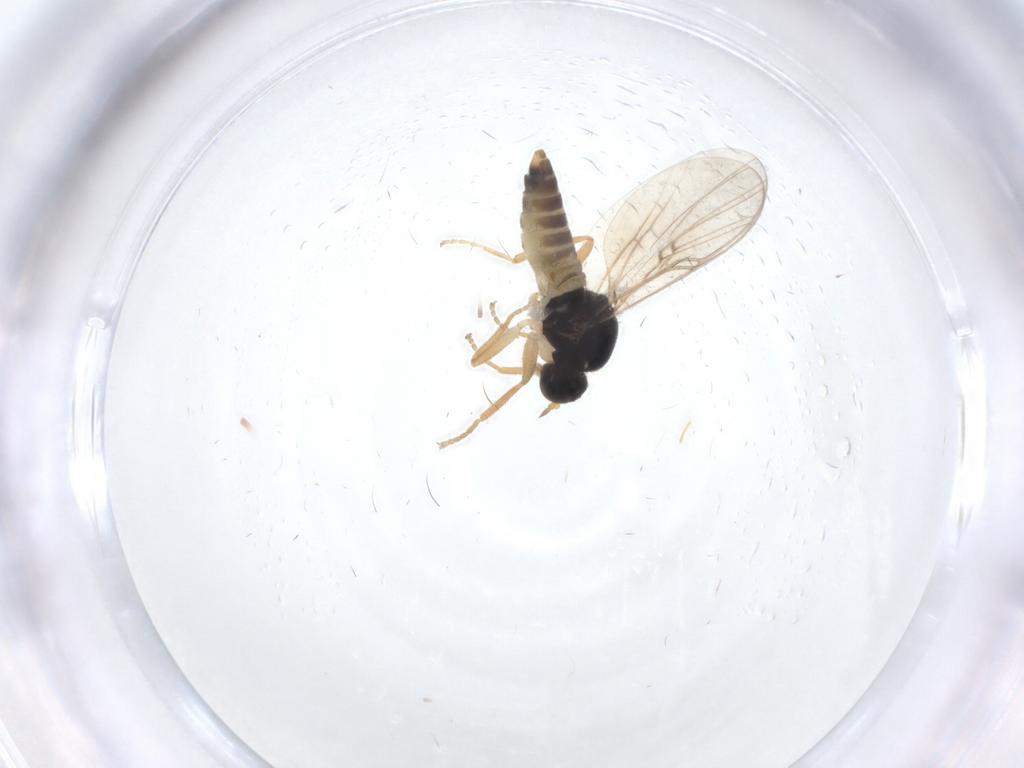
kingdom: Animalia
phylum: Arthropoda
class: Insecta
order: Diptera
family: Hybotidae
